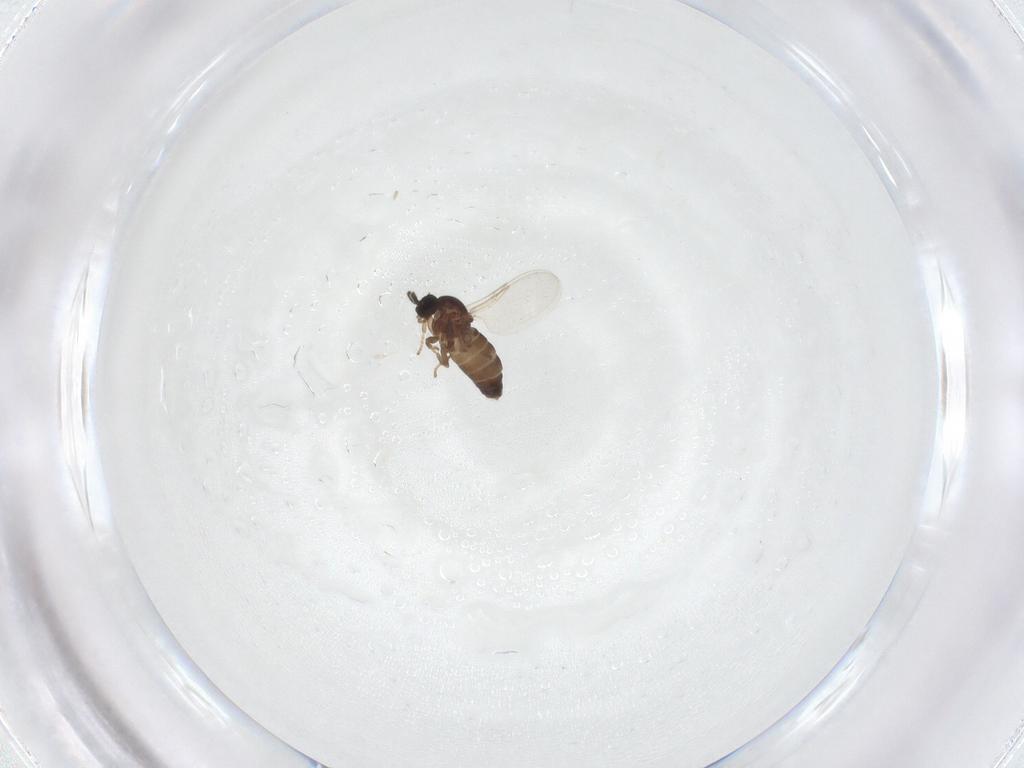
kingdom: Animalia
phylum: Arthropoda
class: Insecta
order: Diptera
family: Scatopsidae
